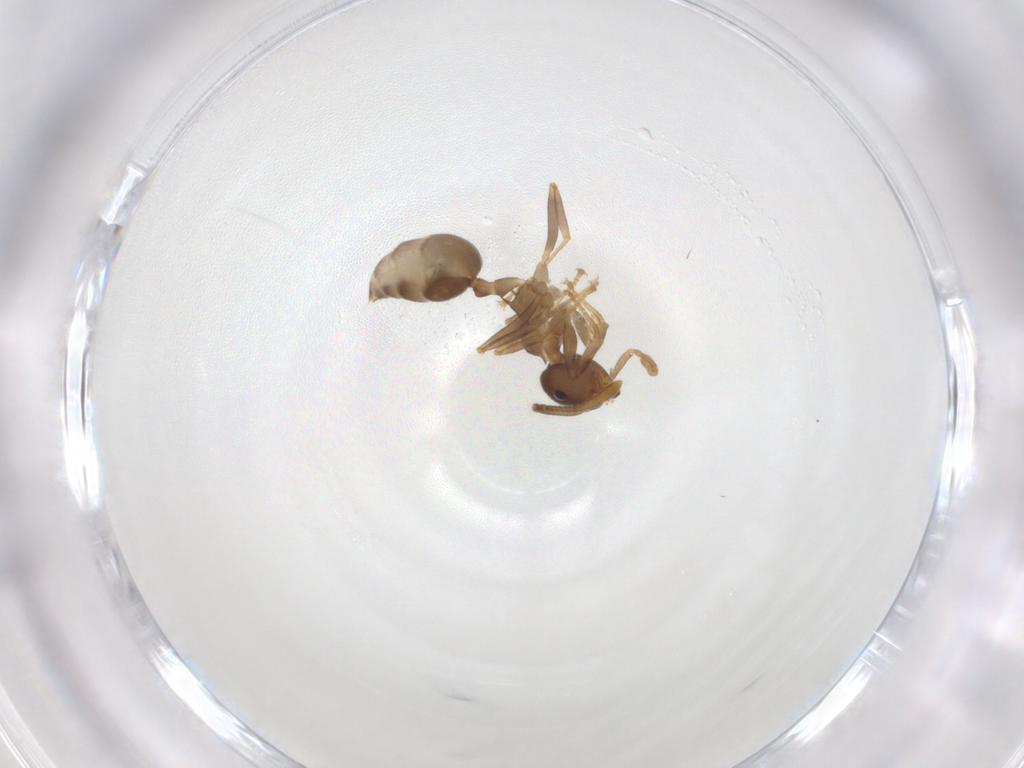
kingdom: Animalia
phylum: Arthropoda
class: Insecta
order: Hymenoptera
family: Formicidae
